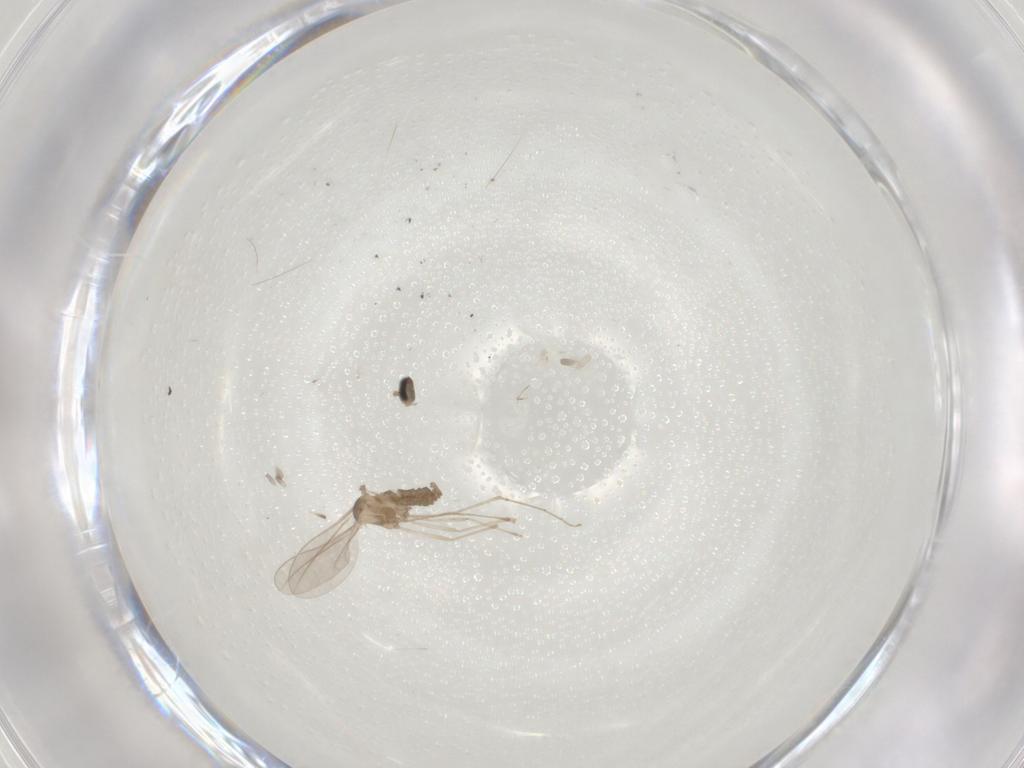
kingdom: Animalia
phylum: Arthropoda
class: Insecta
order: Diptera
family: Cecidomyiidae
